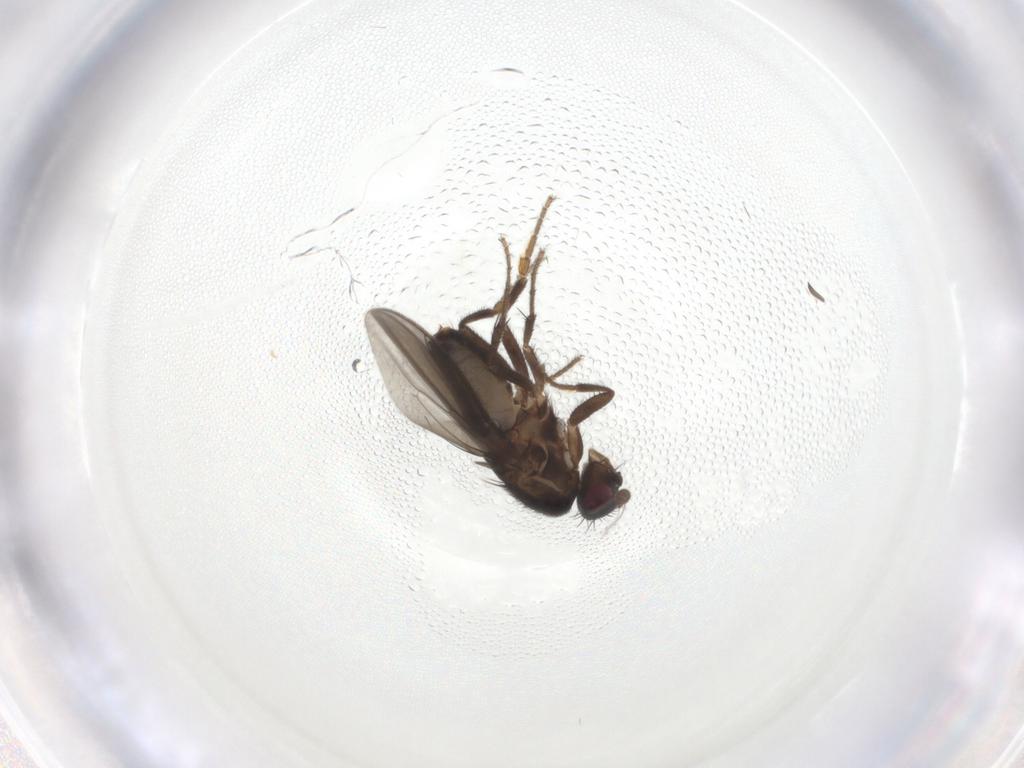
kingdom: Animalia
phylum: Arthropoda
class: Insecta
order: Diptera
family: Sphaeroceridae
